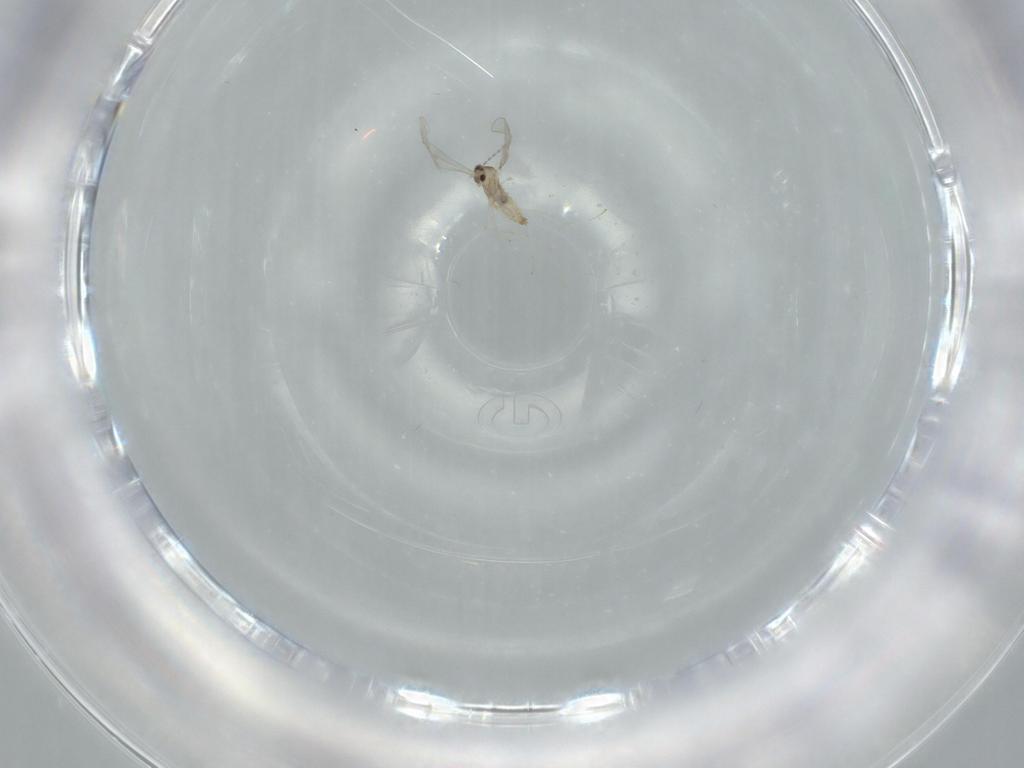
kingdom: Animalia
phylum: Arthropoda
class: Insecta
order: Diptera
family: Cecidomyiidae
